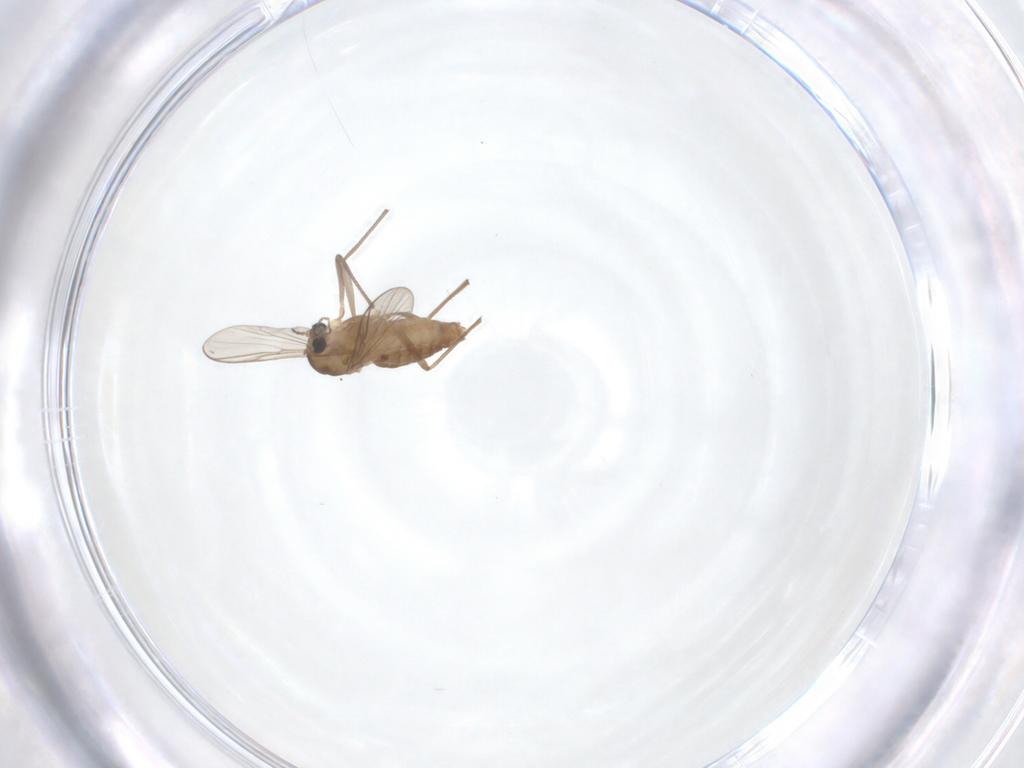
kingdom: Animalia
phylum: Arthropoda
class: Insecta
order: Diptera
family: Chironomidae
